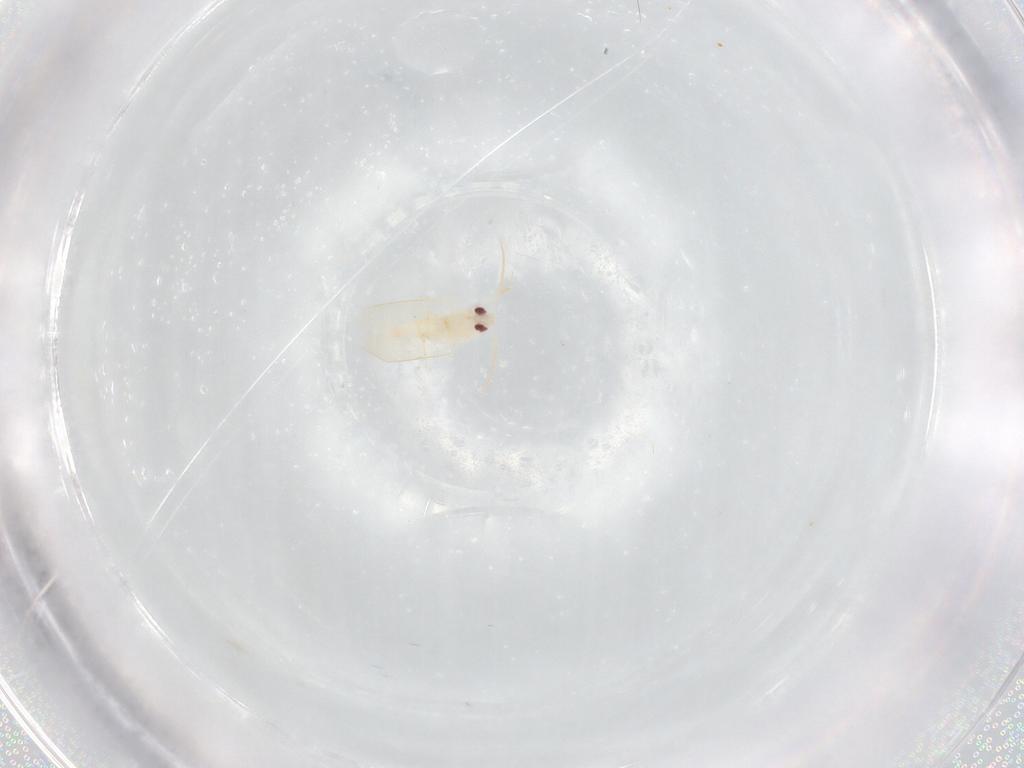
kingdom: Animalia
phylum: Arthropoda
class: Insecta
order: Hemiptera
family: Aleyrodidae
